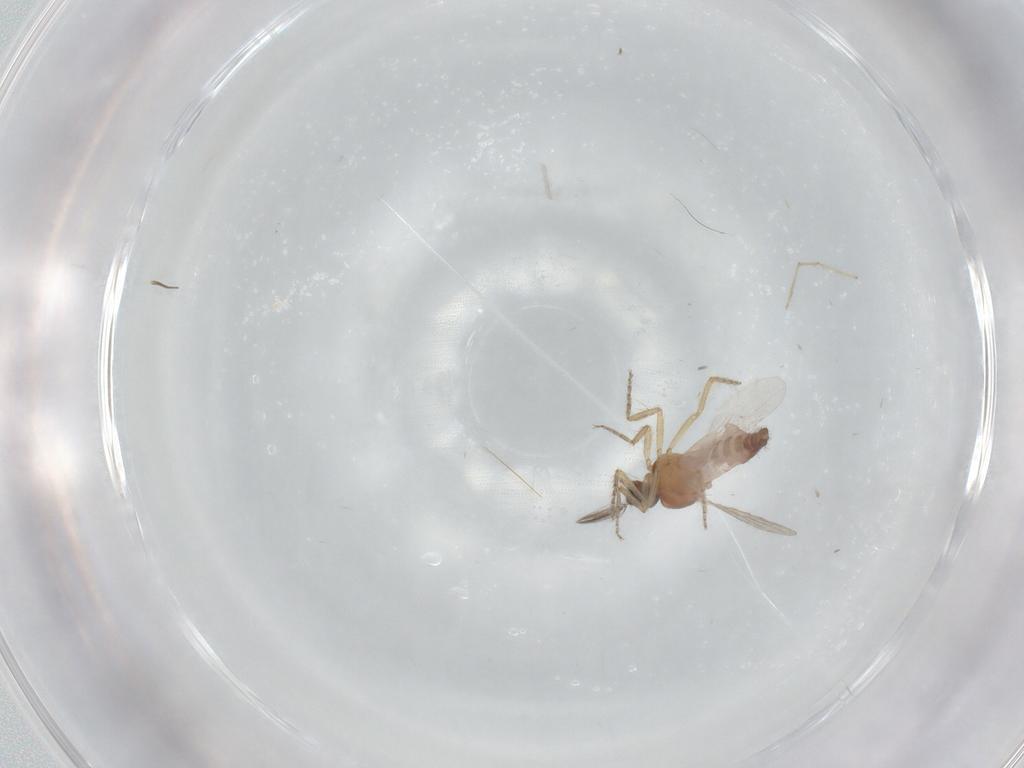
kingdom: Animalia
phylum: Arthropoda
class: Insecta
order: Diptera
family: Ceratopogonidae
